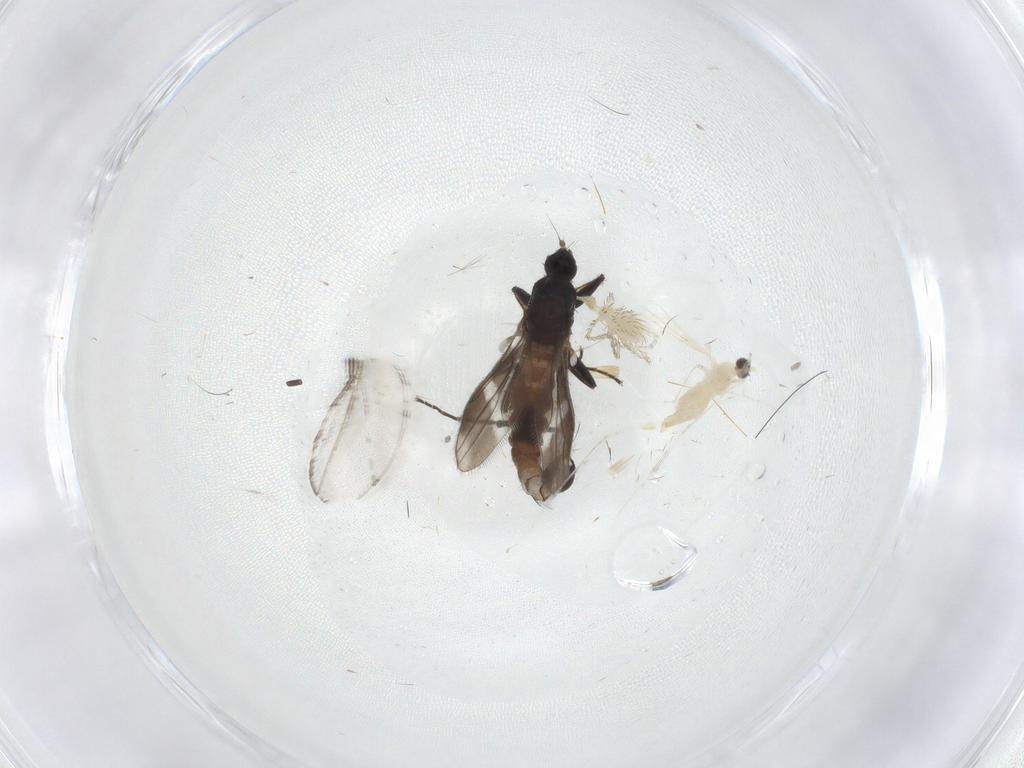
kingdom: Animalia
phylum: Arthropoda
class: Insecta
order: Diptera
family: Cecidomyiidae
